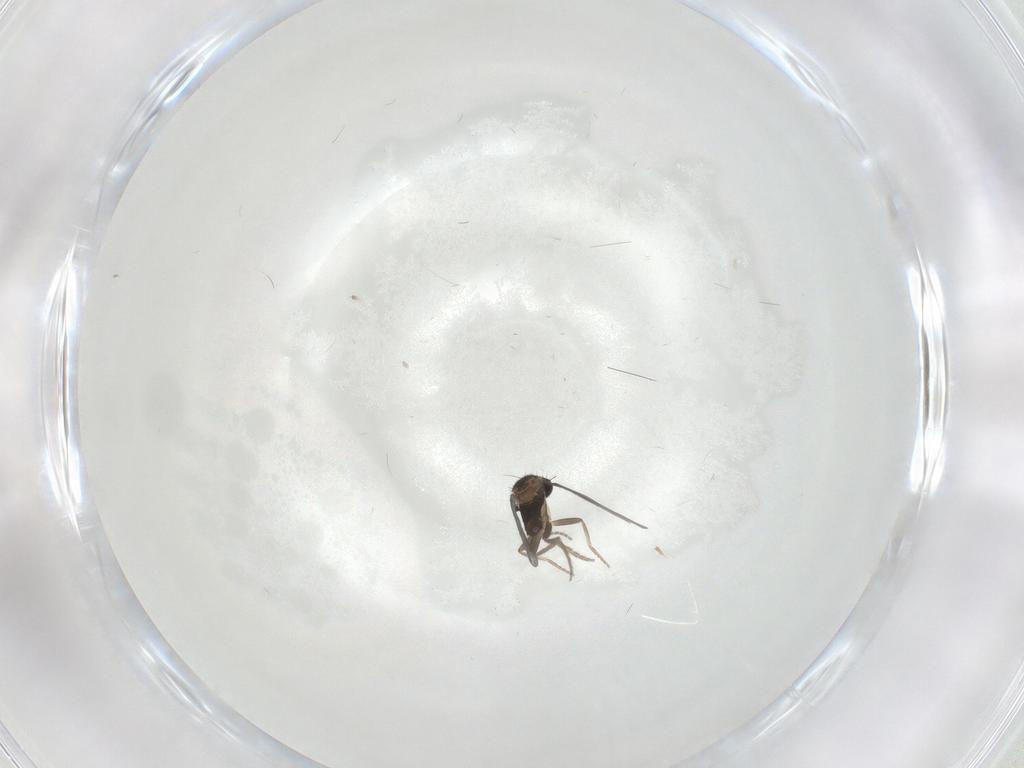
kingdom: Animalia
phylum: Arthropoda
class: Insecta
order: Diptera
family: Chironomidae
